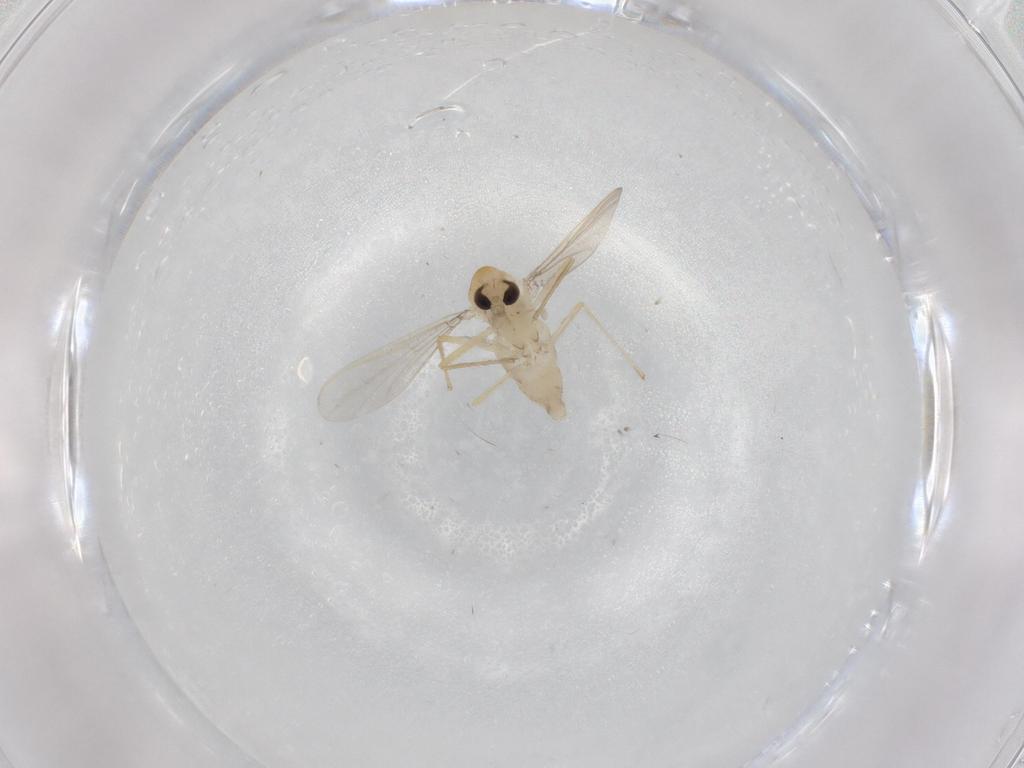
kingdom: Animalia
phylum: Arthropoda
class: Insecta
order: Diptera
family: Chironomidae
